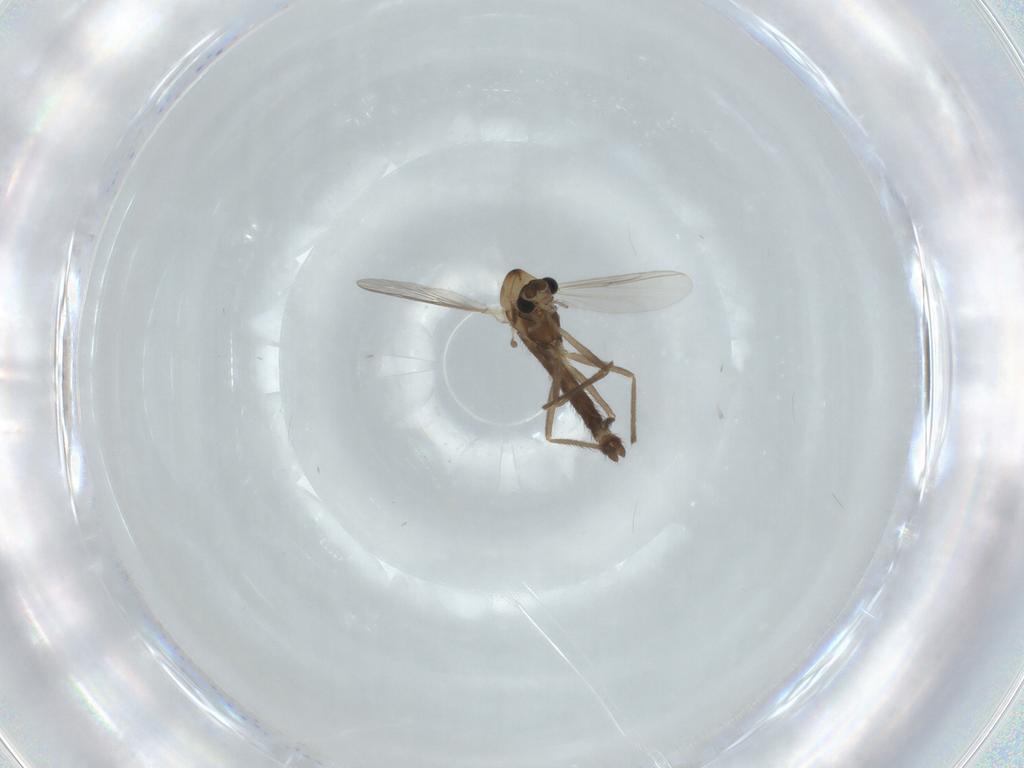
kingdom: Animalia
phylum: Arthropoda
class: Insecta
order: Diptera
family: Chironomidae
